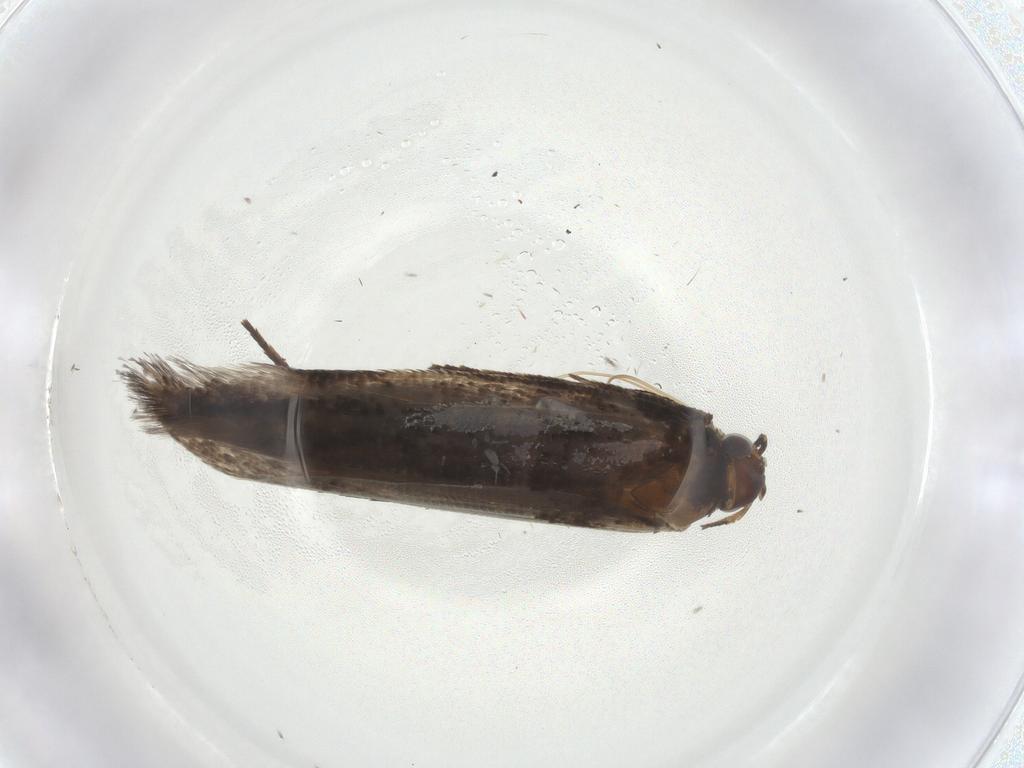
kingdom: Animalia
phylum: Arthropoda
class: Insecta
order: Lepidoptera
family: Gelechiidae
